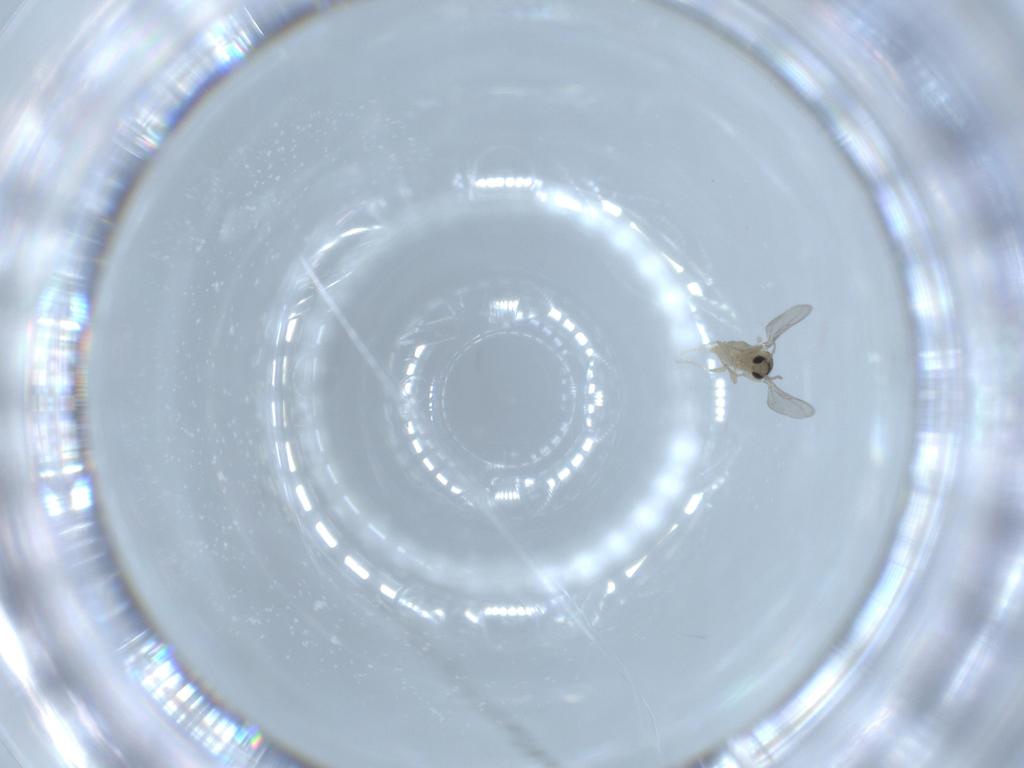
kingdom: Animalia
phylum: Arthropoda
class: Insecta
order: Diptera
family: Cecidomyiidae
